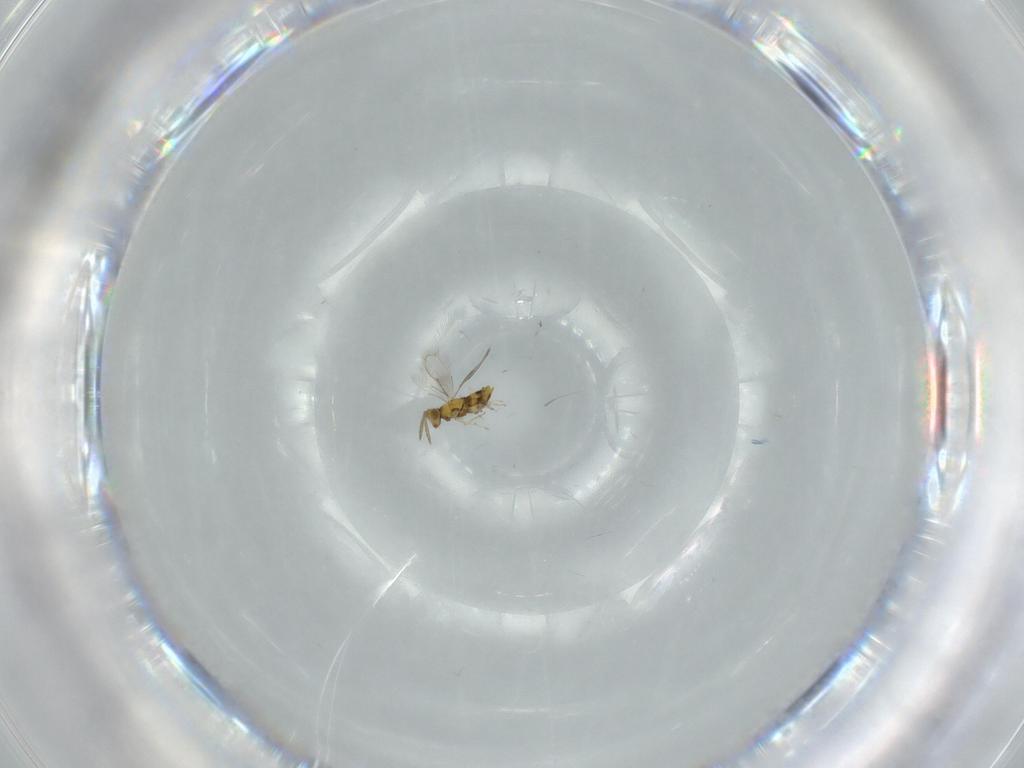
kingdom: Animalia
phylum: Arthropoda
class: Insecta
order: Hymenoptera
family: Aphelinidae
